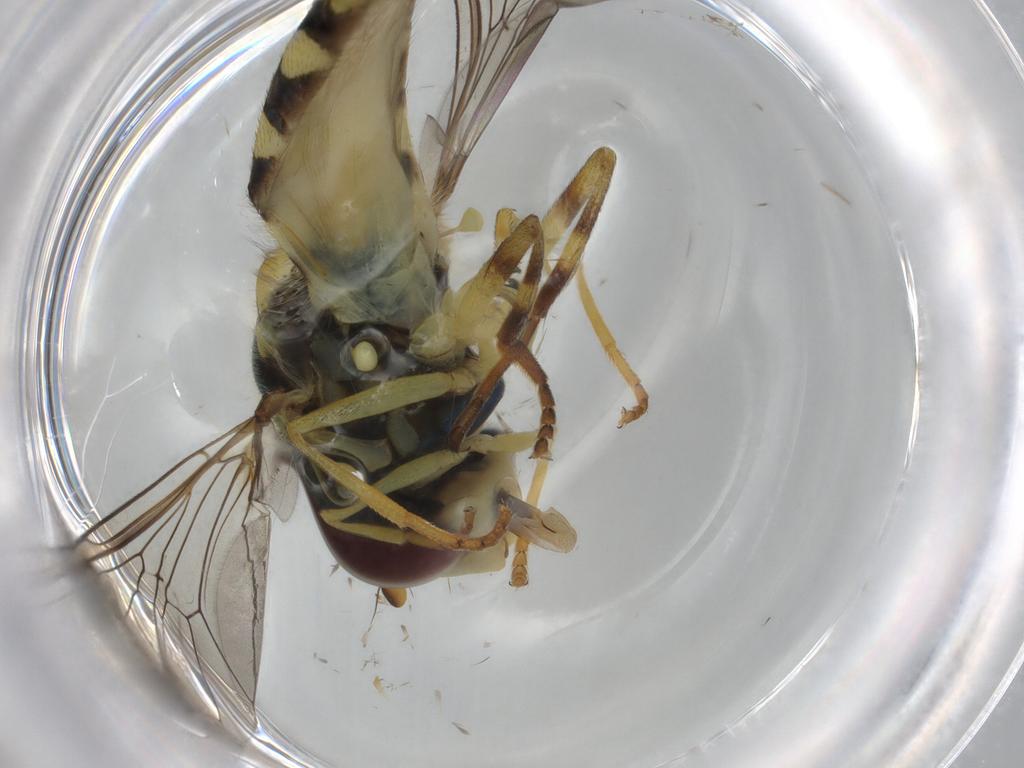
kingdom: Animalia
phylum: Arthropoda
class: Insecta
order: Diptera
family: Syrphidae
